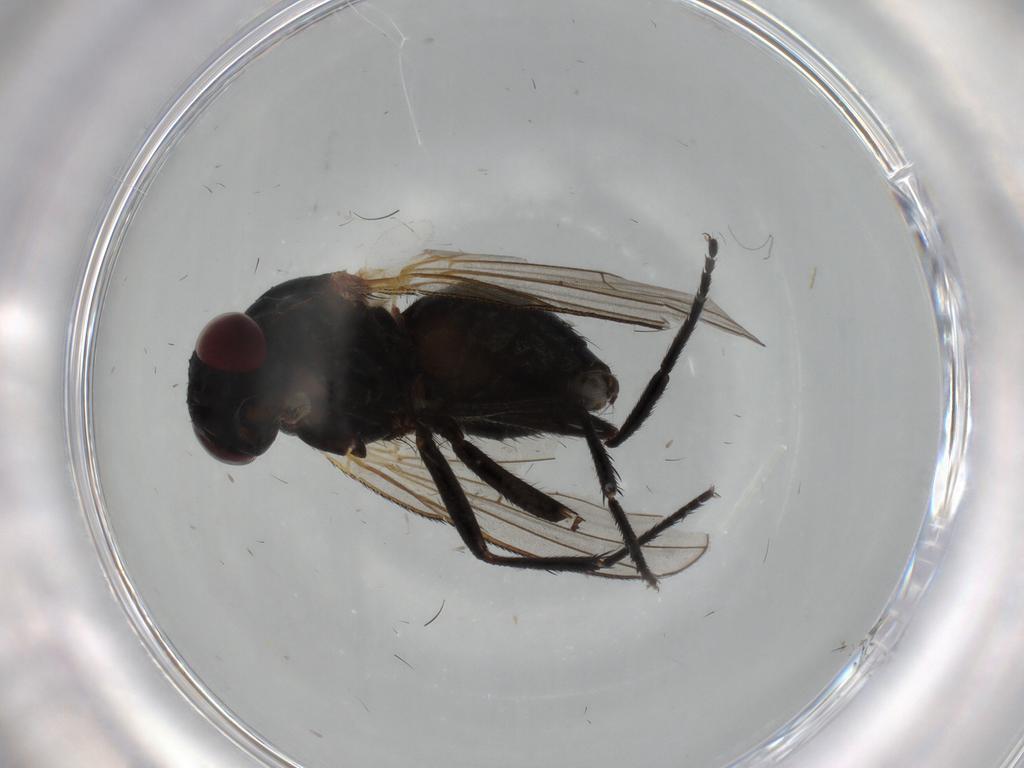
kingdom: Animalia
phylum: Arthropoda
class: Insecta
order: Diptera
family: Fannia
